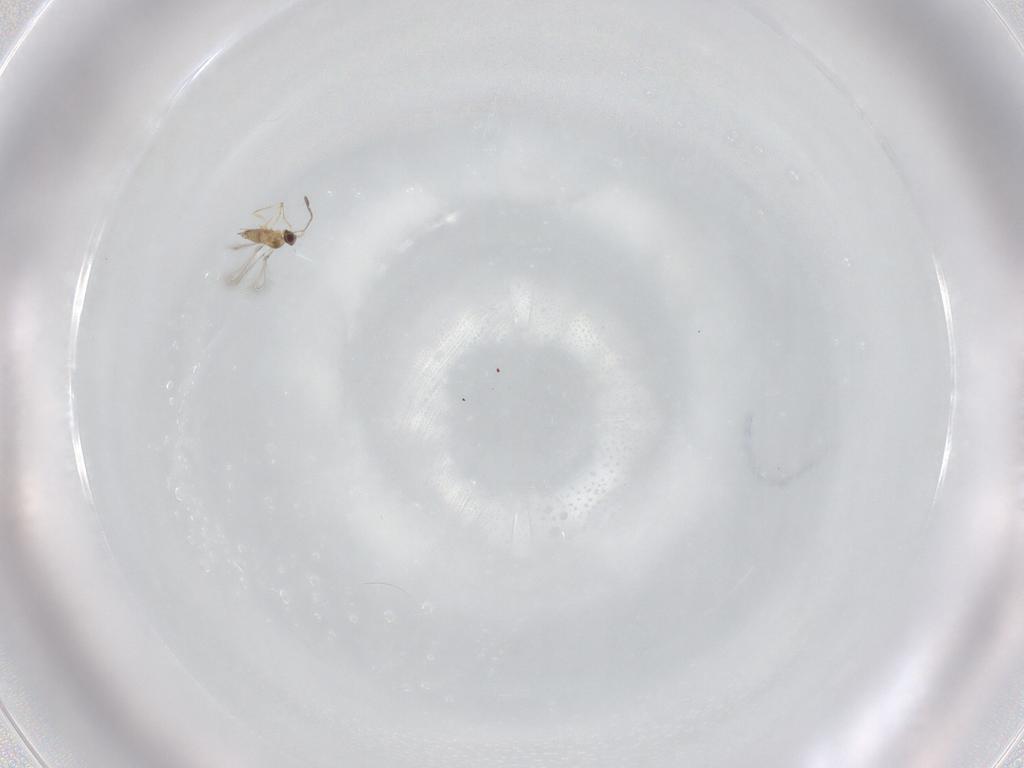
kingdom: Animalia
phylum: Arthropoda
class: Insecta
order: Hymenoptera
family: Mymaridae
